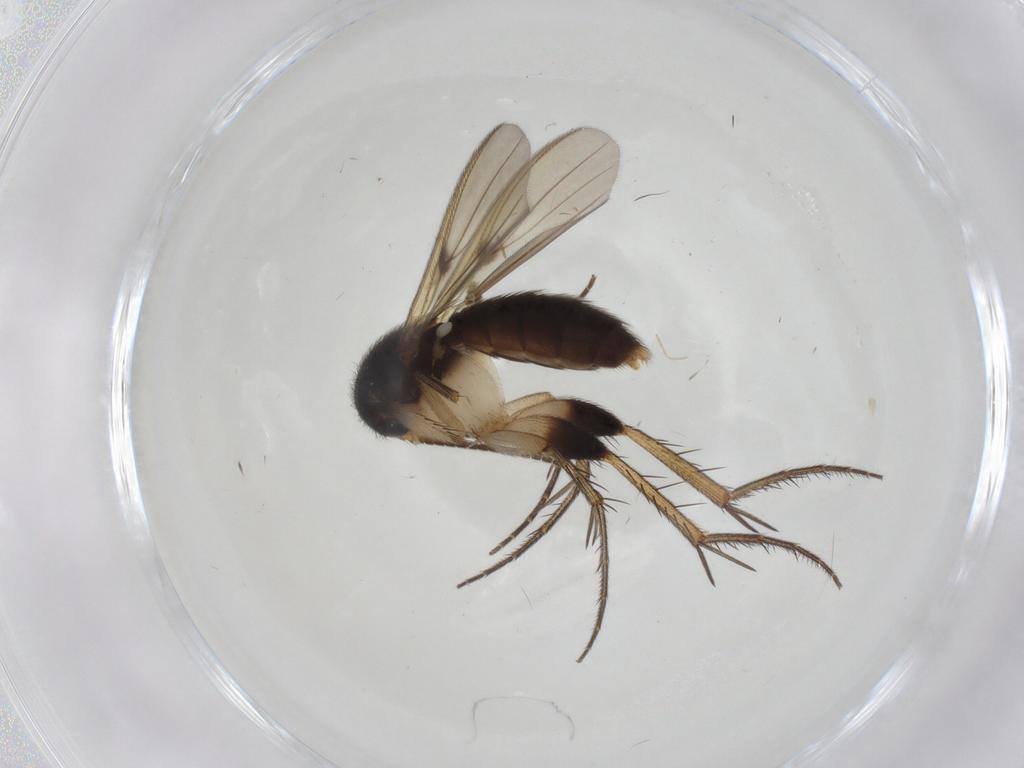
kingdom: Animalia
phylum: Arthropoda
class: Insecta
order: Diptera
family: Mycetophilidae
